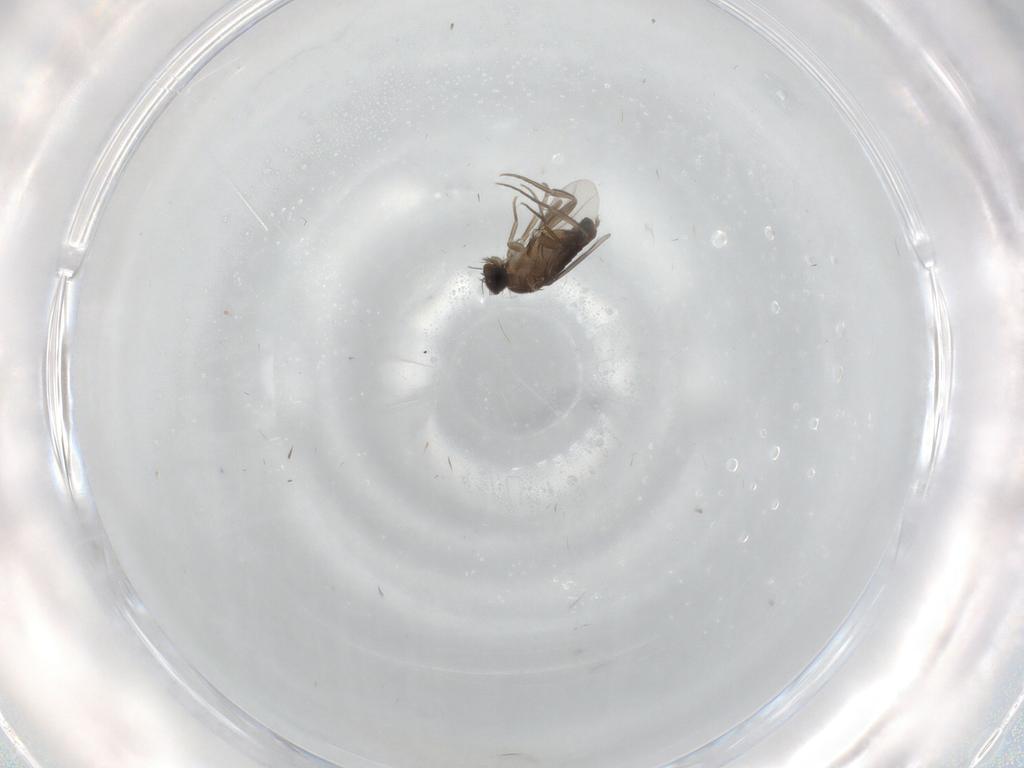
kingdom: Animalia
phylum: Arthropoda
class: Insecta
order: Diptera
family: Phoridae
